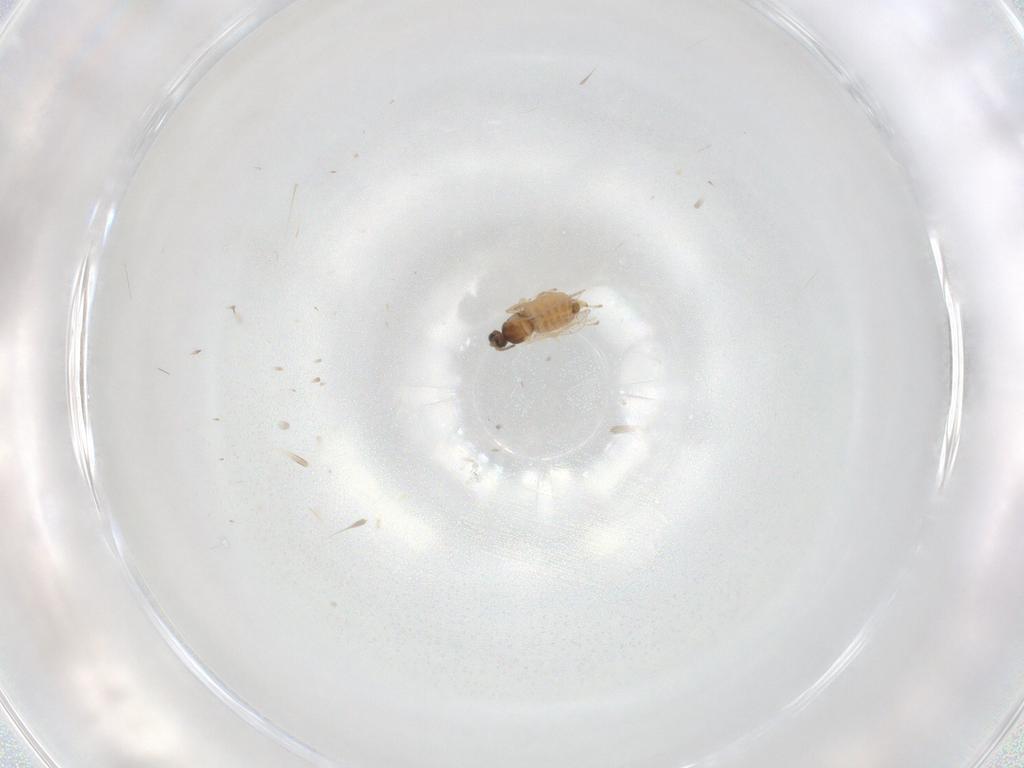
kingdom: Animalia
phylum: Arthropoda
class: Insecta
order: Diptera
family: Cecidomyiidae
